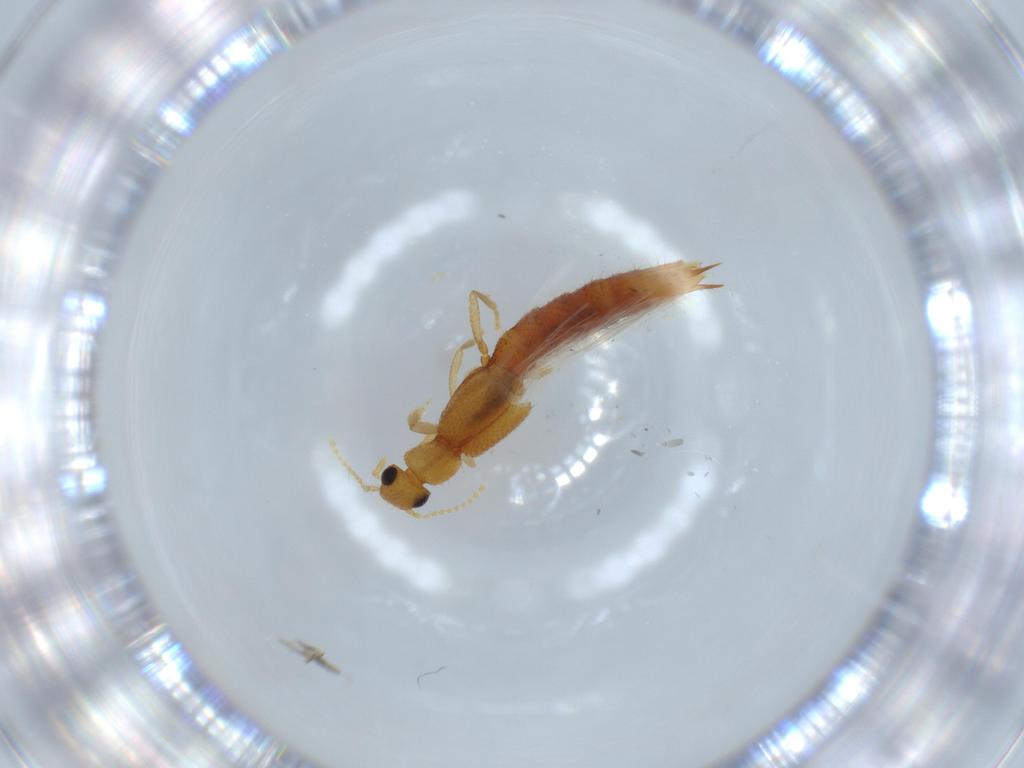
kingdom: Animalia
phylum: Arthropoda
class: Insecta
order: Coleoptera
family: Staphylinidae
